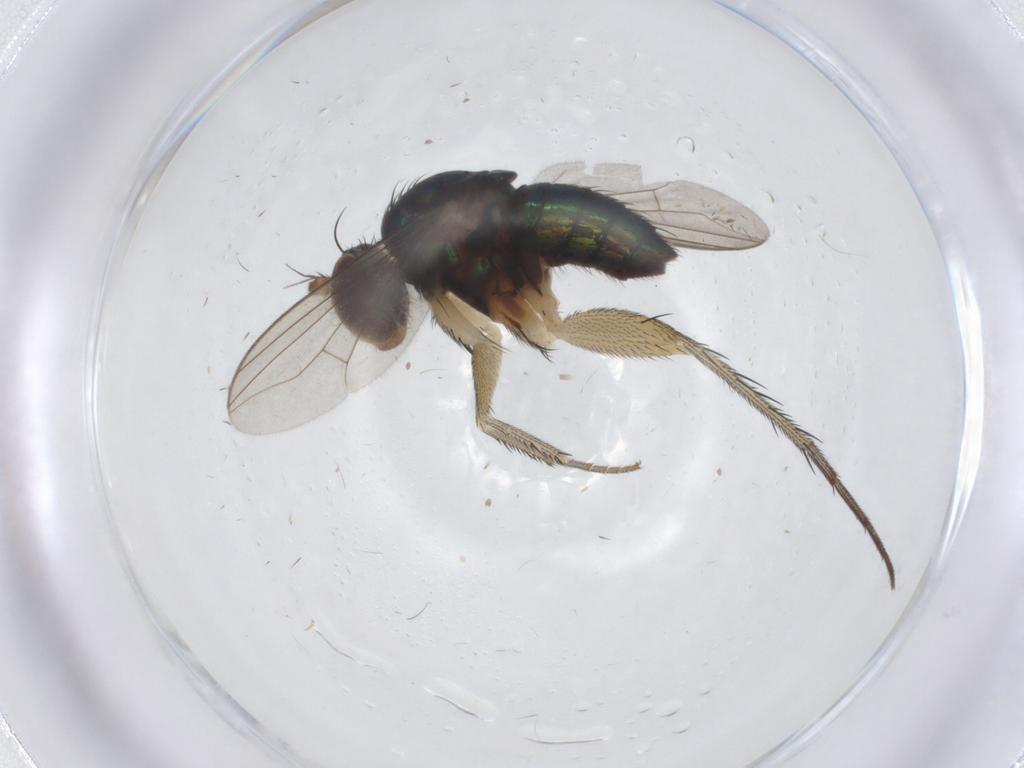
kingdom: Animalia
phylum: Arthropoda
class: Insecta
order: Diptera
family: Dolichopodidae
